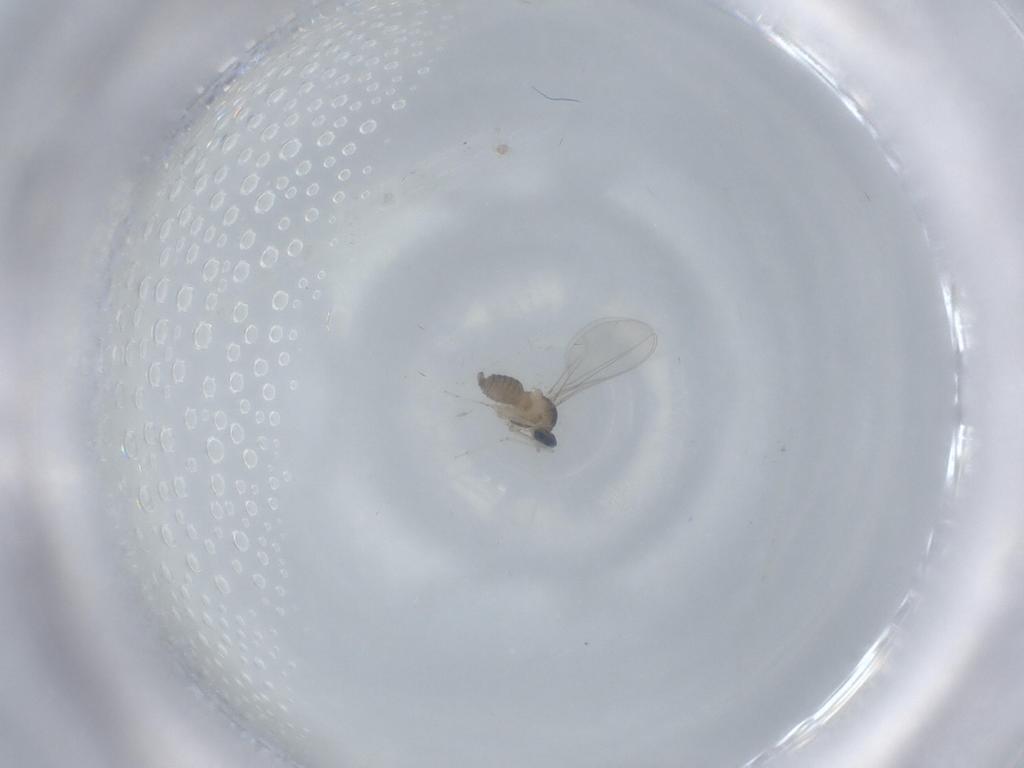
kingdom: Animalia
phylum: Arthropoda
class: Insecta
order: Diptera
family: Cecidomyiidae
